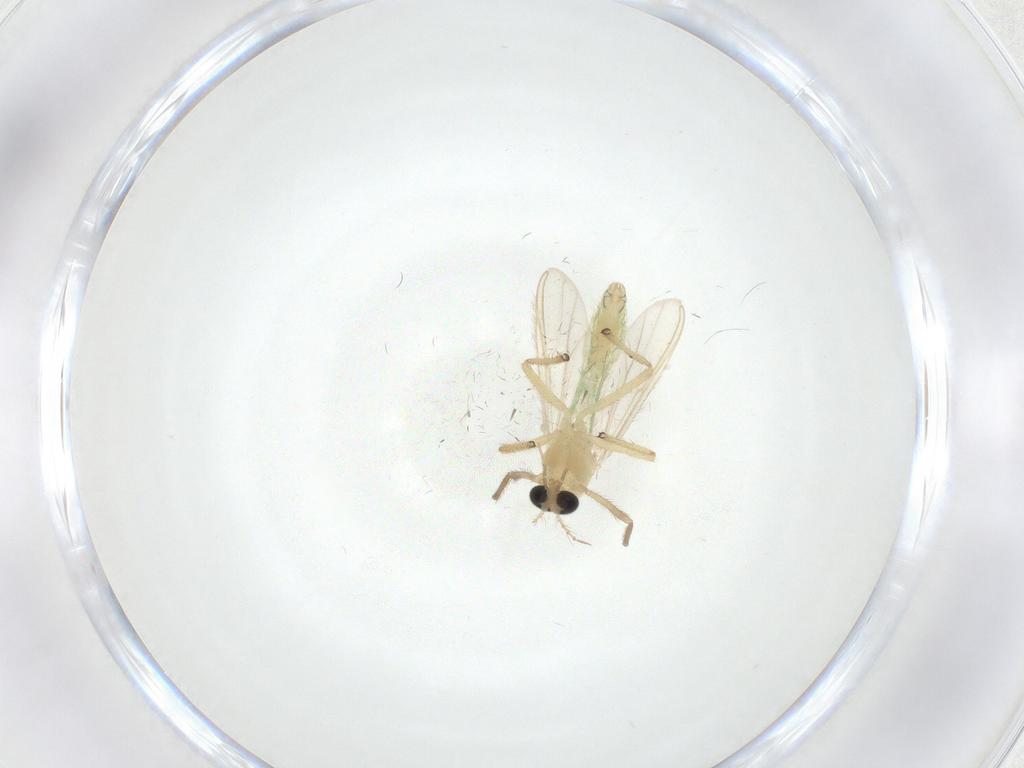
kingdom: Animalia
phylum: Arthropoda
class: Insecta
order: Diptera
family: Chironomidae
